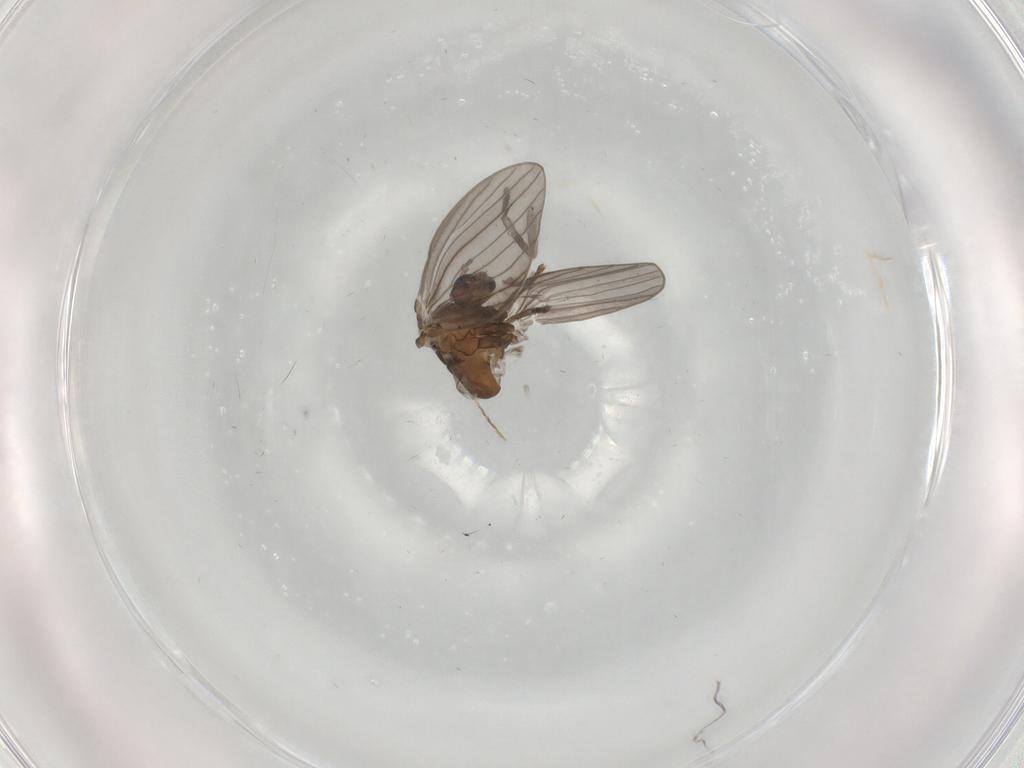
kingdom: Animalia
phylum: Arthropoda
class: Insecta
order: Diptera
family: Psychodidae
